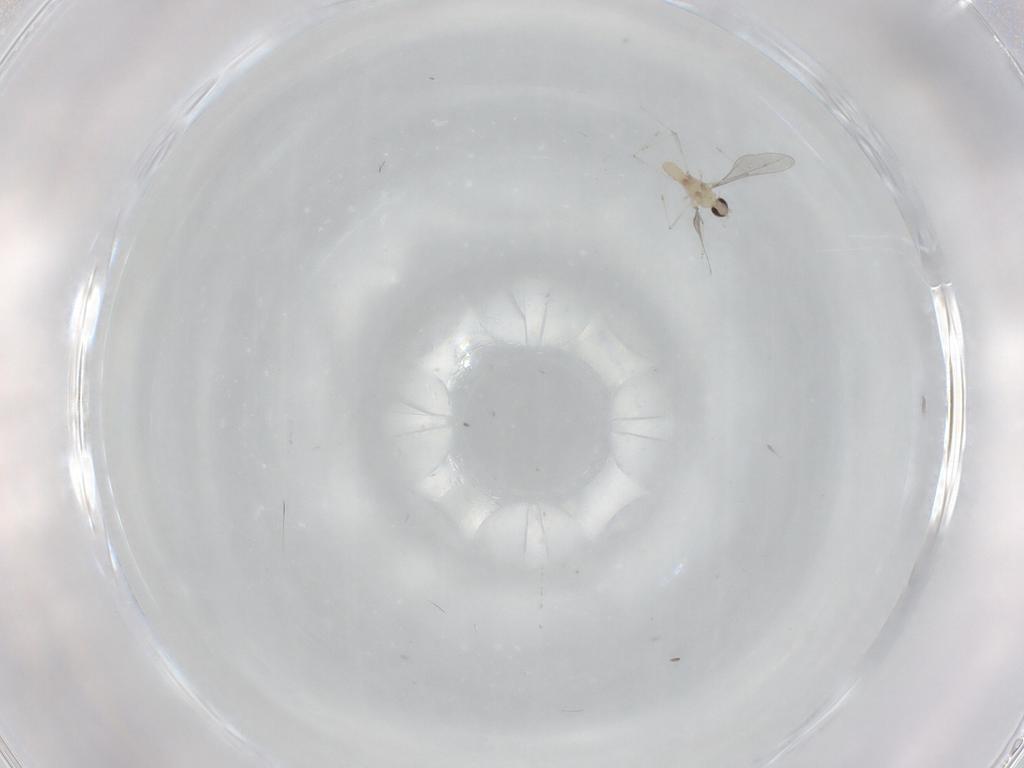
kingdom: Animalia
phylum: Arthropoda
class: Insecta
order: Diptera
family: Cecidomyiidae
